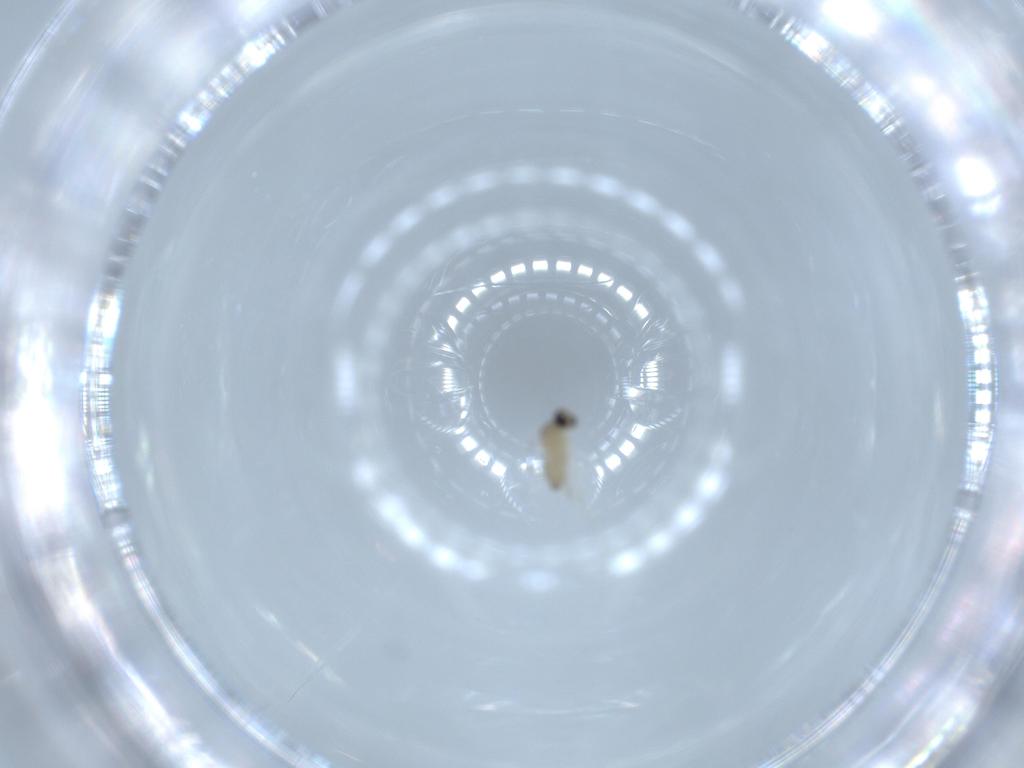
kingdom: Animalia
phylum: Arthropoda
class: Insecta
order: Diptera
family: Cecidomyiidae
